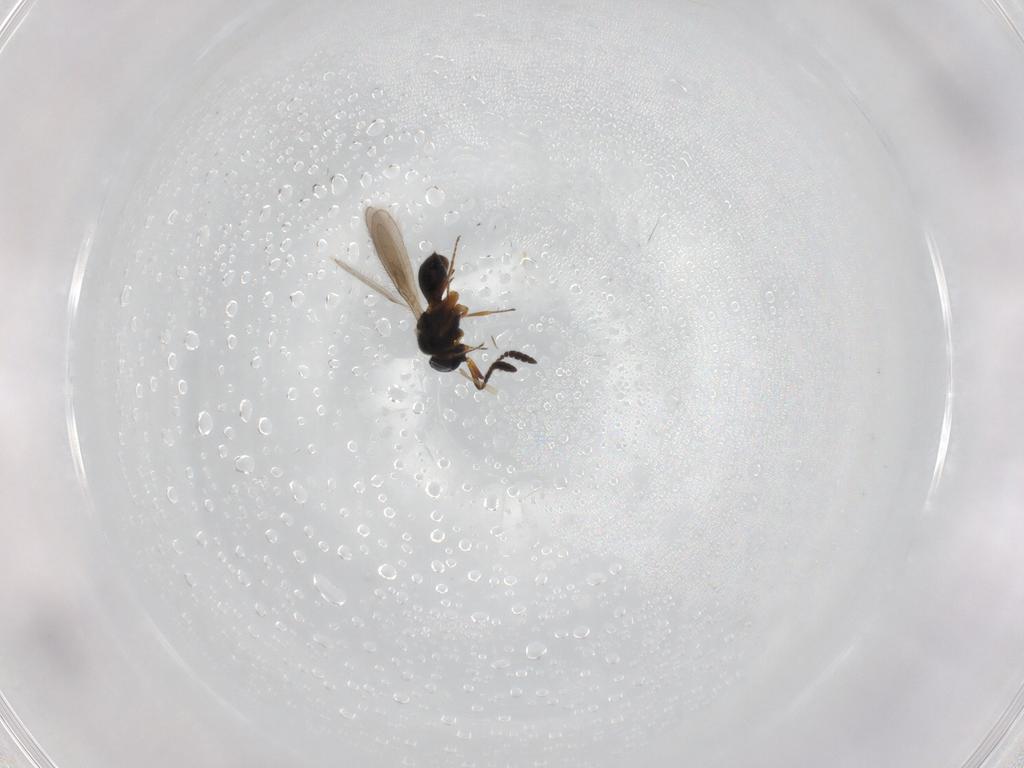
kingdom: Animalia
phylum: Arthropoda
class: Insecta
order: Hymenoptera
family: Scelionidae
